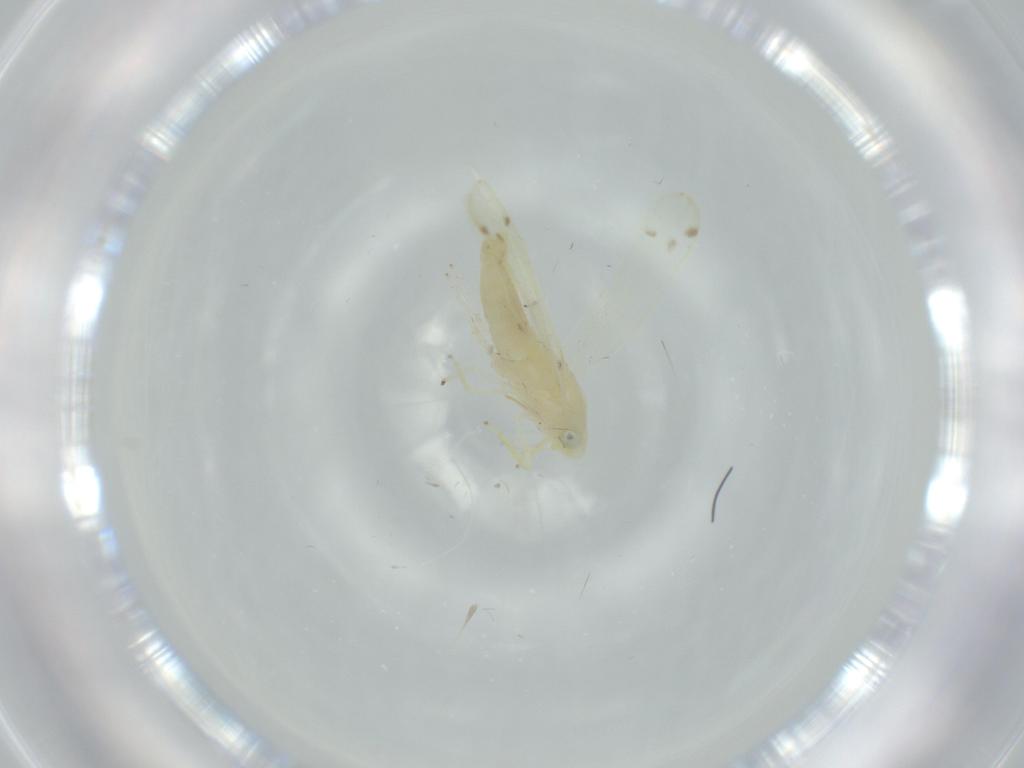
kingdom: Animalia
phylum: Arthropoda
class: Insecta
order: Hemiptera
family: Cicadellidae
